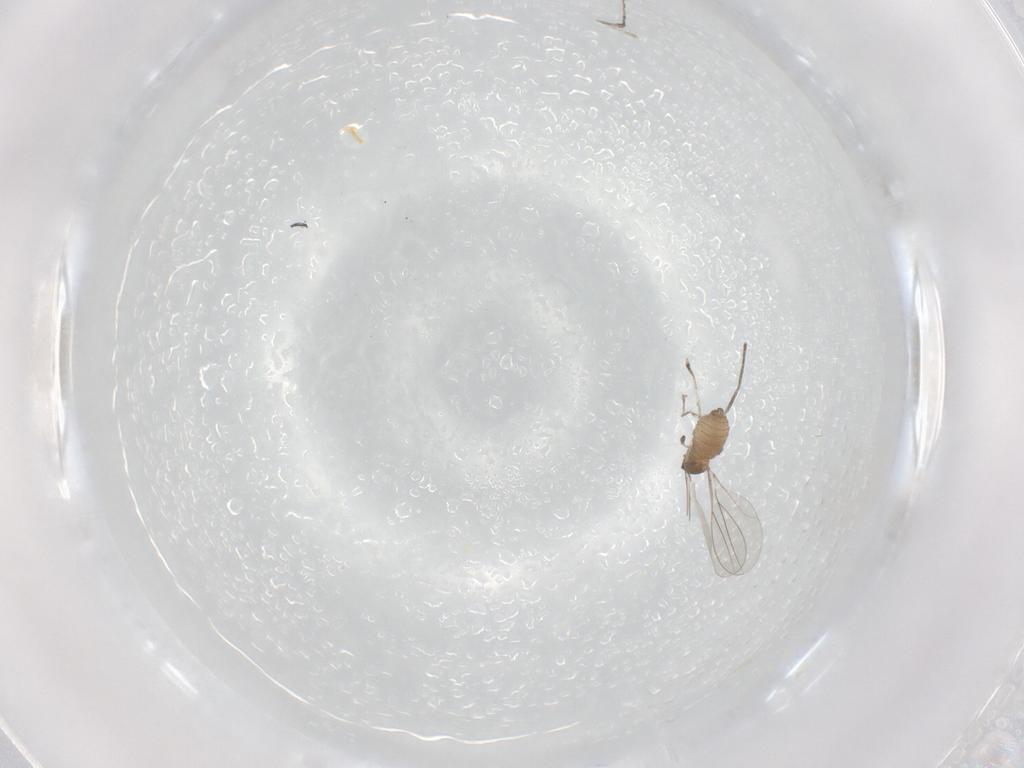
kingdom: Animalia
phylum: Arthropoda
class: Insecta
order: Diptera
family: Cecidomyiidae
